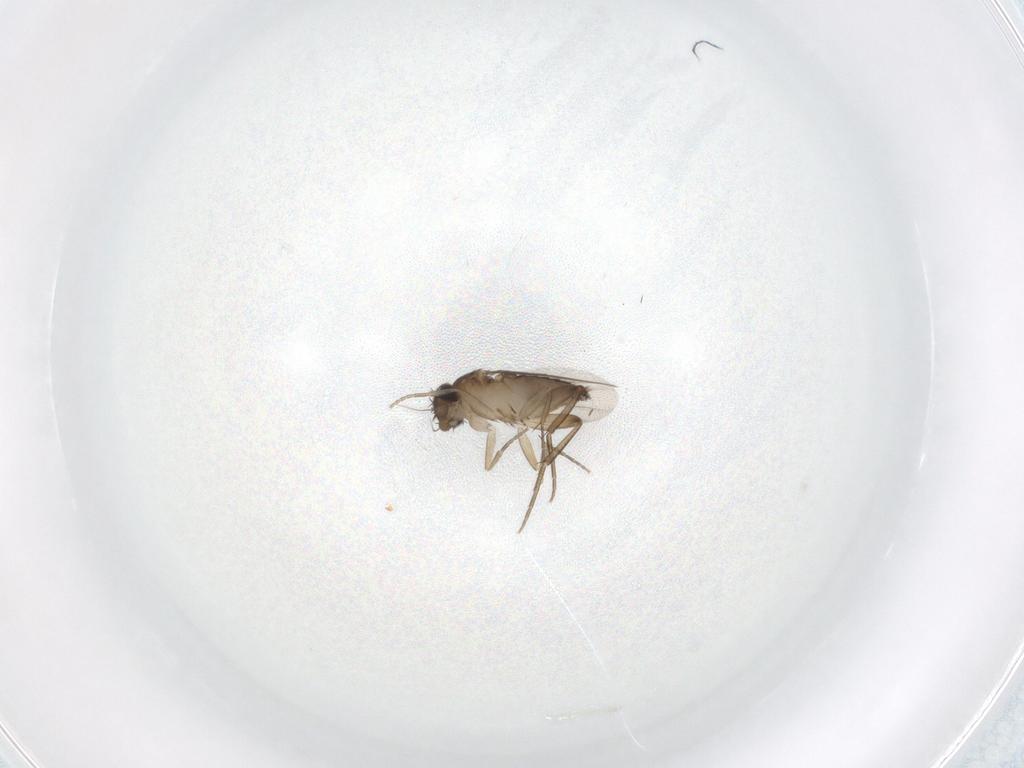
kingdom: Animalia
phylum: Arthropoda
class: Insecta
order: Diptera
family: Phoridae
